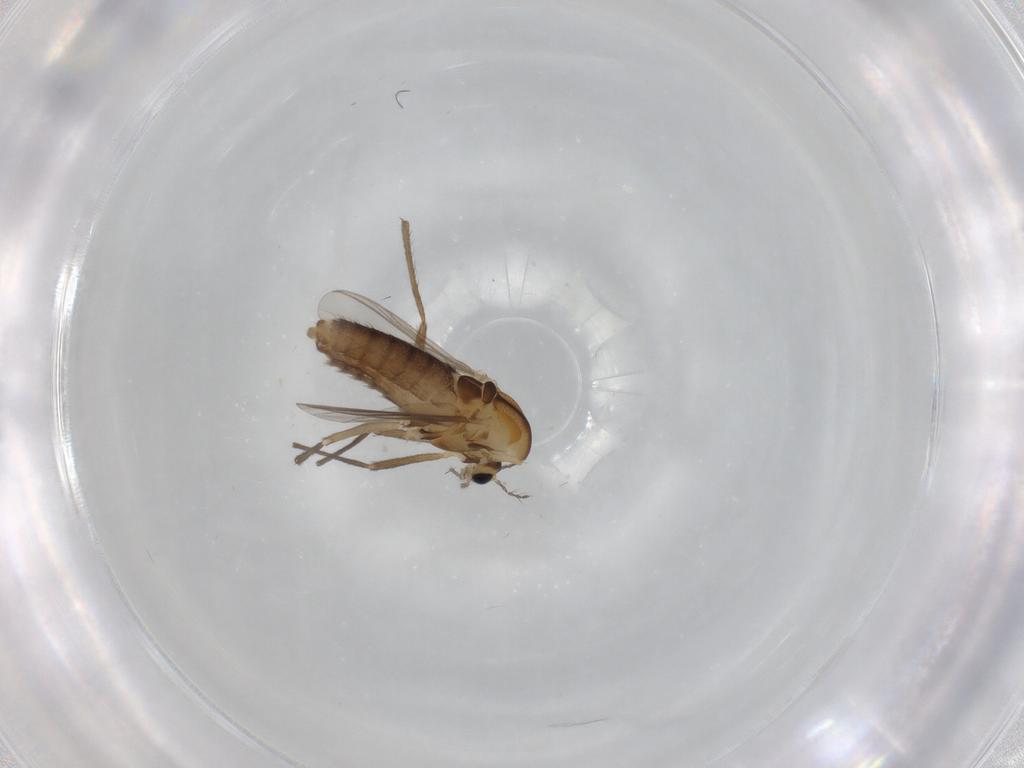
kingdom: Animalia
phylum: Arthropoda
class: Insecta
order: Diptera
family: Chironomidae
